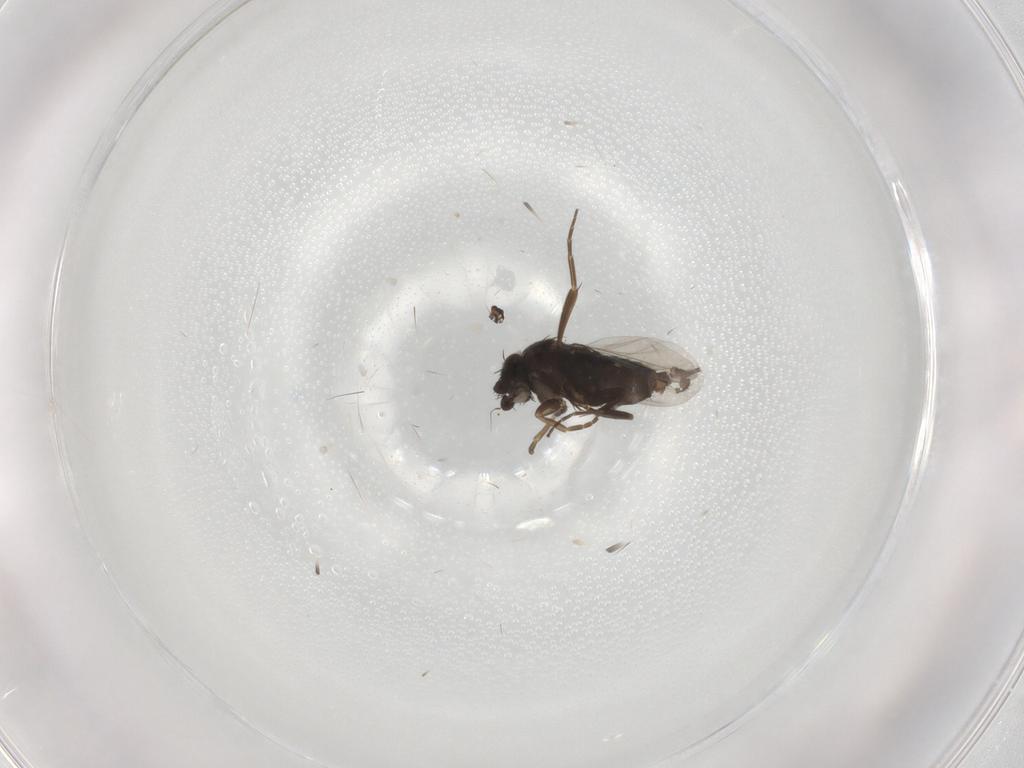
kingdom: Animalia
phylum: Arthropoda
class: Insecta
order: Diptera
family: Phoridae
